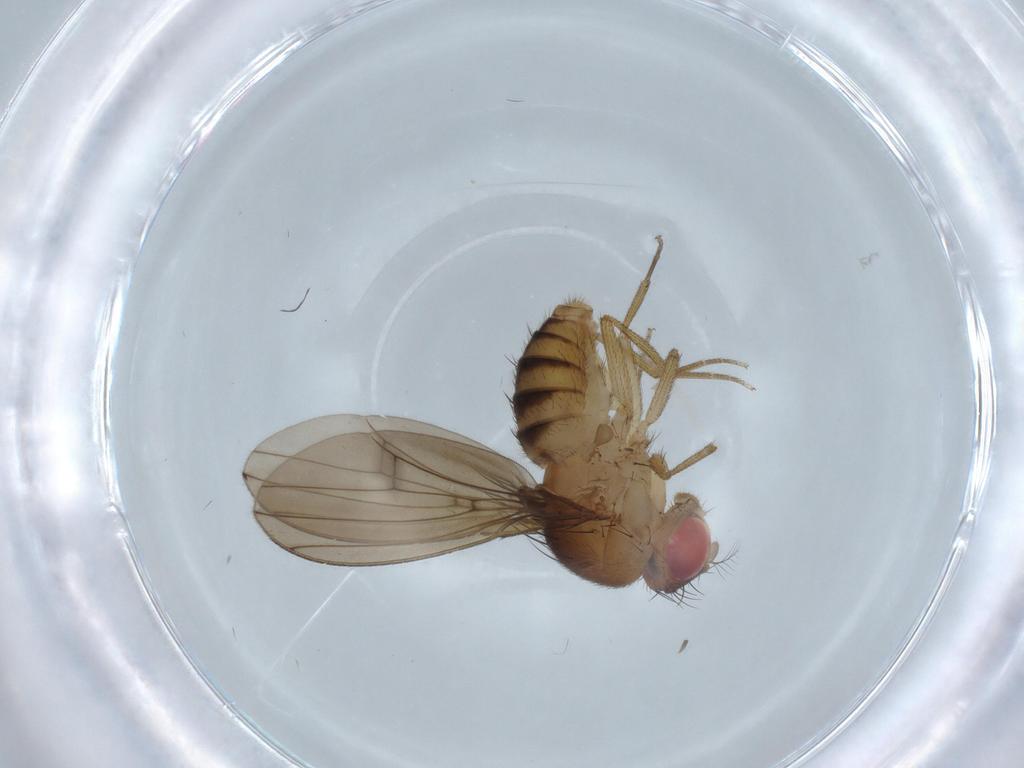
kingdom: Animalia
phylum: Arthropoda
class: Insecta
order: Diptera
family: Drosophilidae
